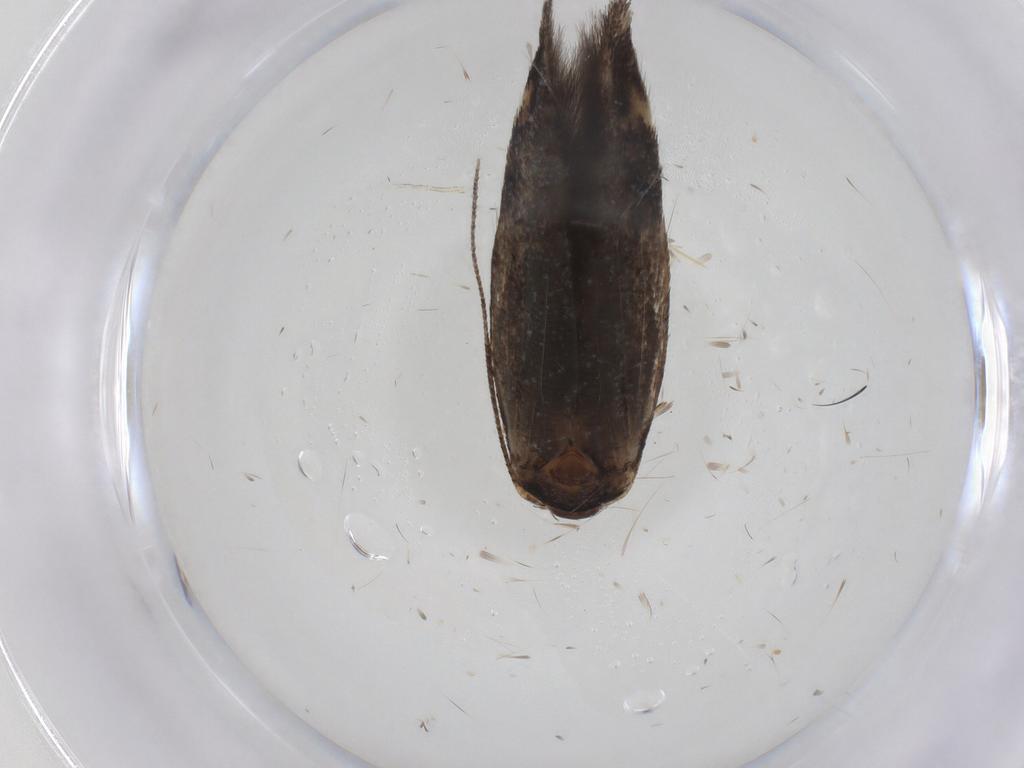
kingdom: Animalia
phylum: Arthropoda
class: Insecta
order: Lepidoptera
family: Momphidae
